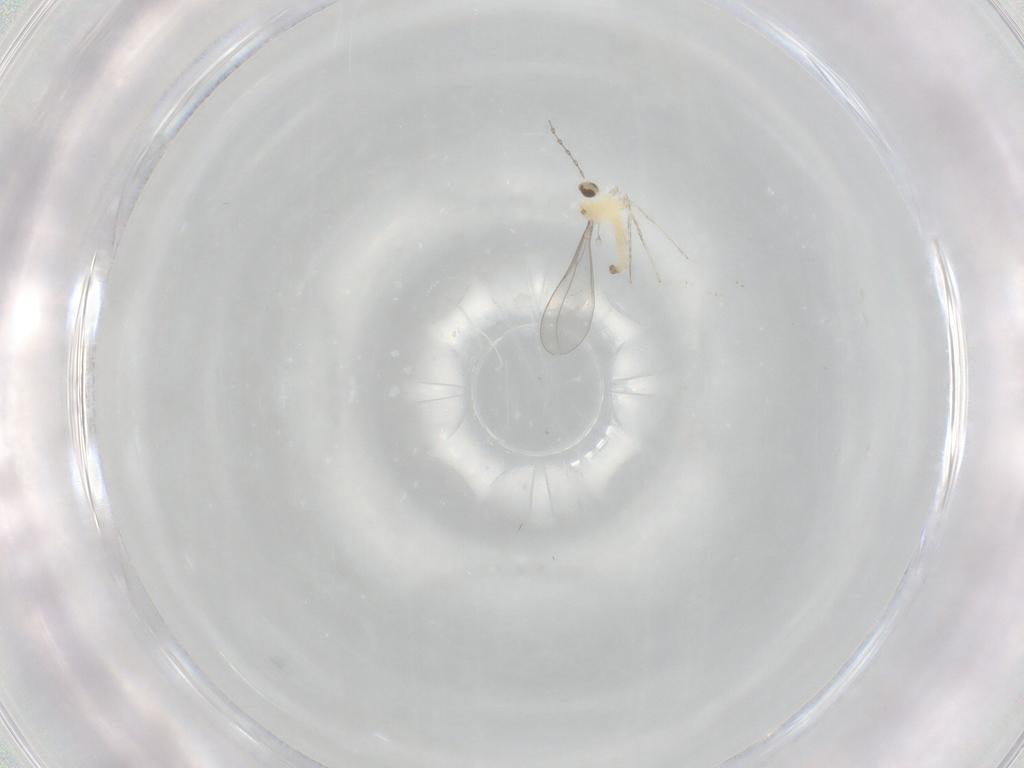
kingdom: Animalia
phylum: Arthropoda
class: Insecta
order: Diptera
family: Cecidomyiidae
